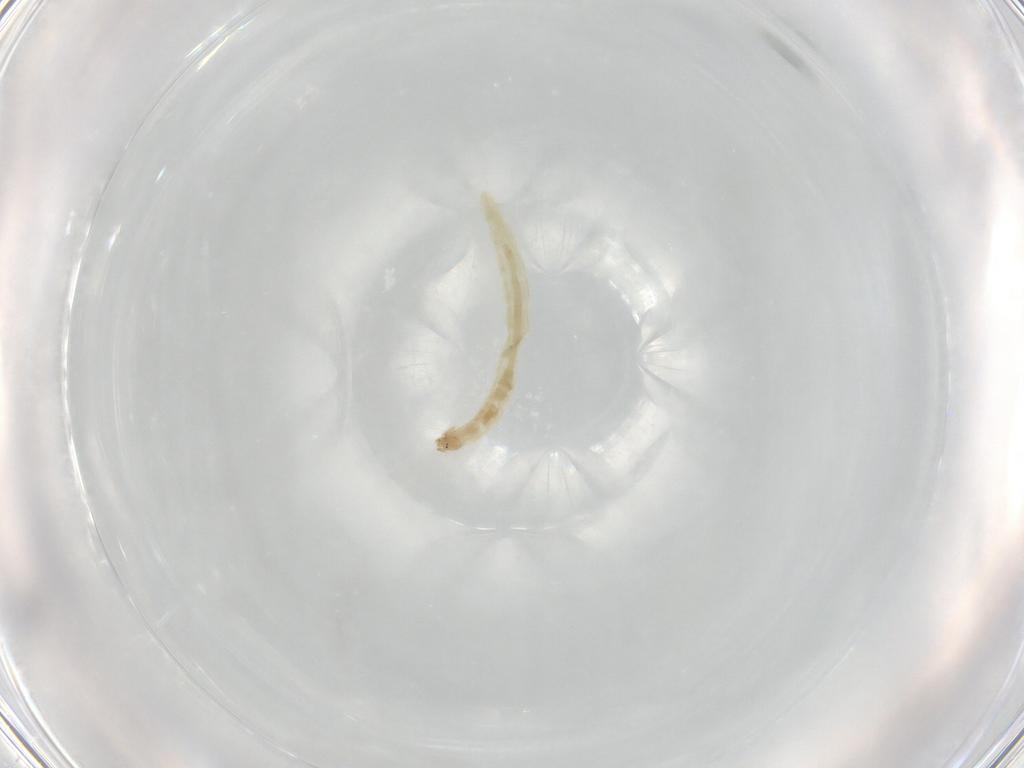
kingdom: Animalia
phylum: Arthropoda
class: Insecta
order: Diptera
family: Chironomidae
